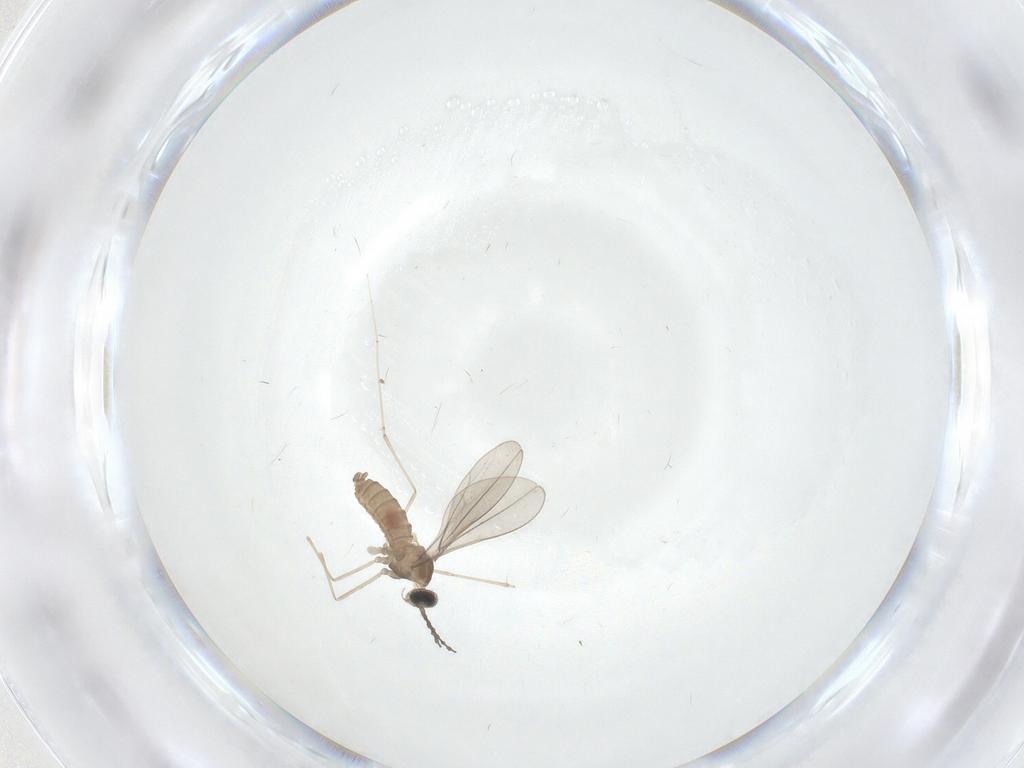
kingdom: Animalia
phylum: Arthropoda
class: Insecta
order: Diptera
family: Cecidomyiidae
